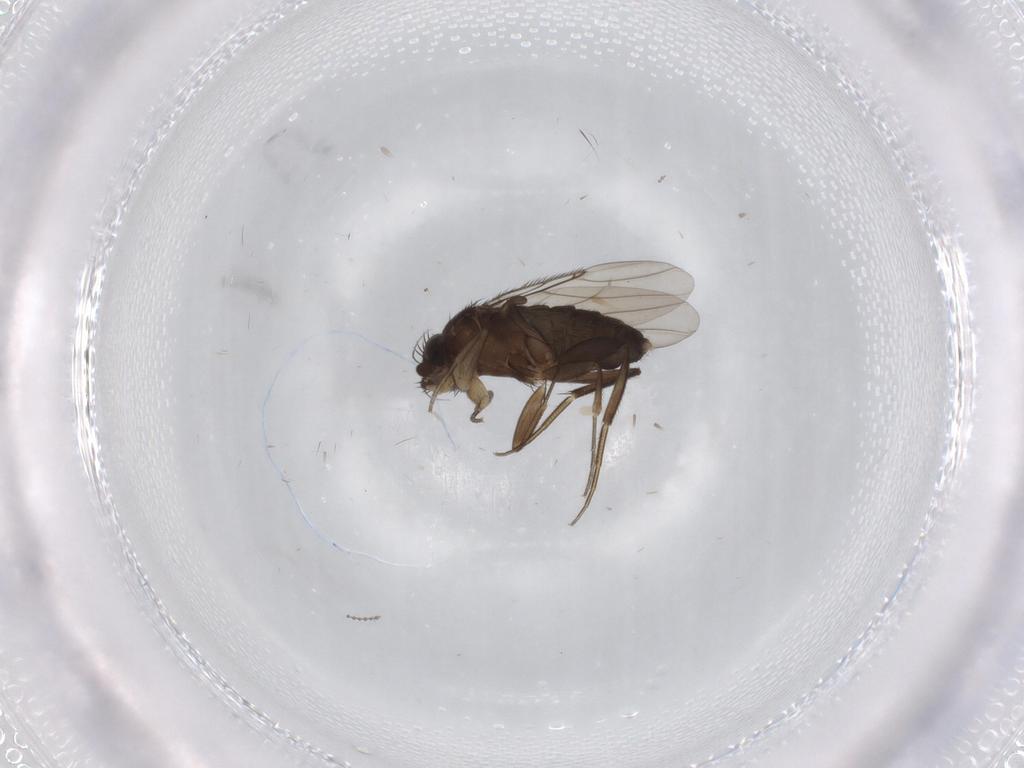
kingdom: Animalia
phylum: Arthropoda
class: Insecta
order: Diptera
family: Phoridae
